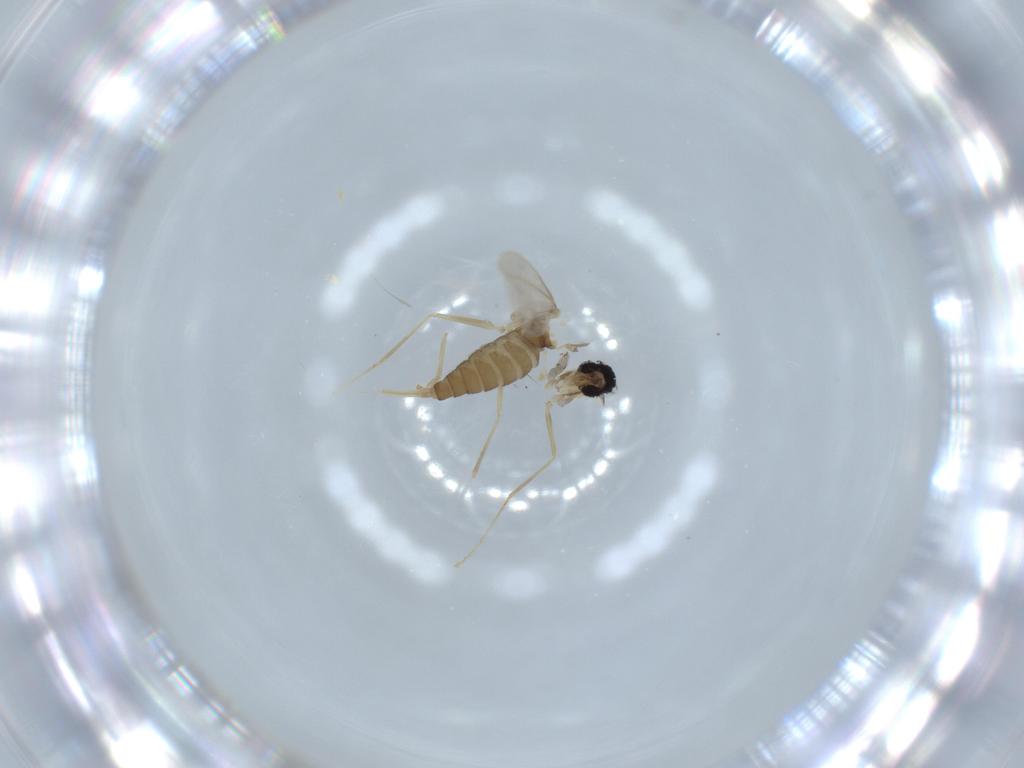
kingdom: Animalia
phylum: Arthropoda
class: Insecta
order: Diptera
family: Cecidomyiidae
